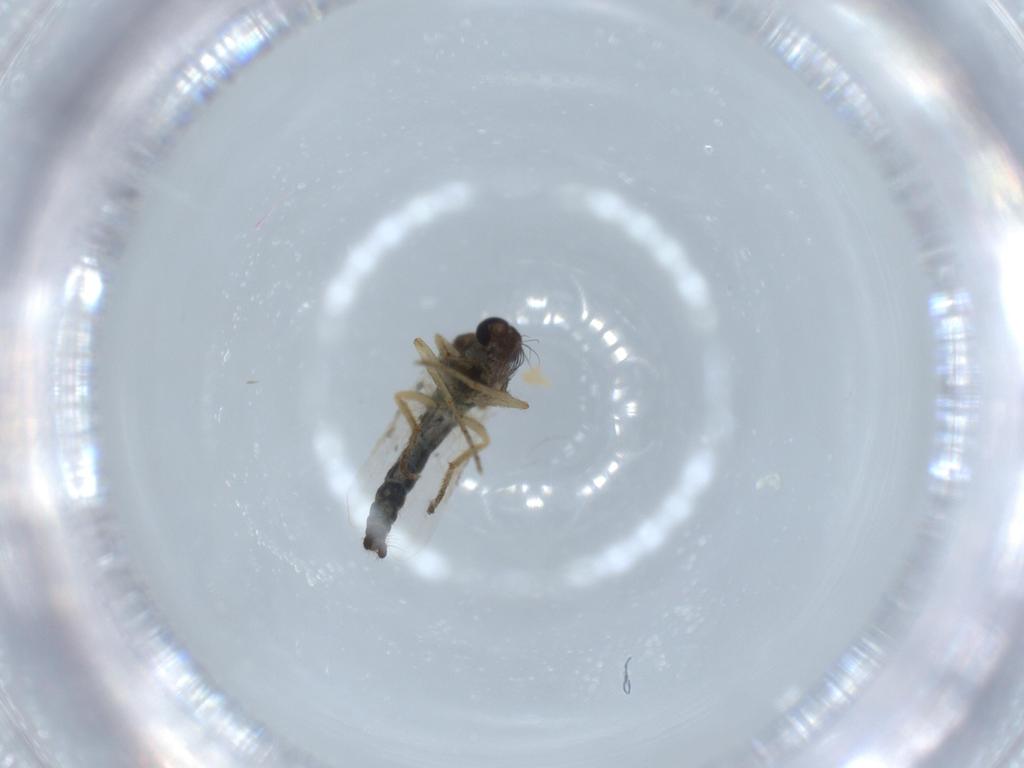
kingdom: Animalia
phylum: Arthropoda
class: Insecta
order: Diptera
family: Ceratopogonidae
